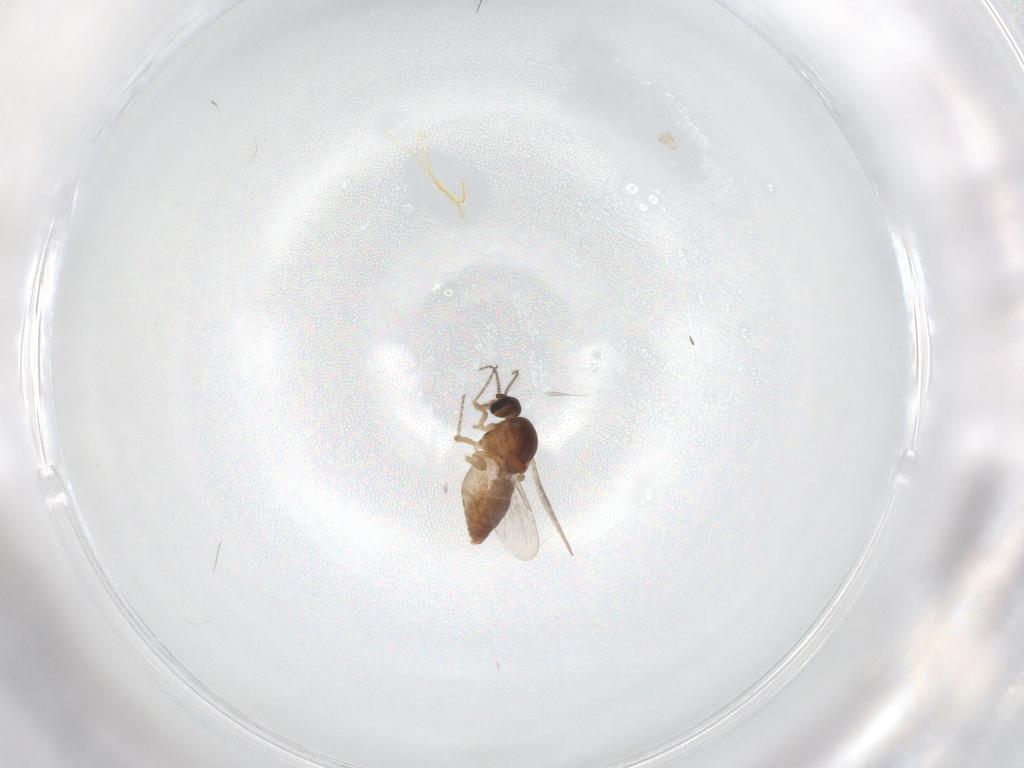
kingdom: Animalia
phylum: Arthropoda
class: Insecta
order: Diptera
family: Ceratopogonidae
